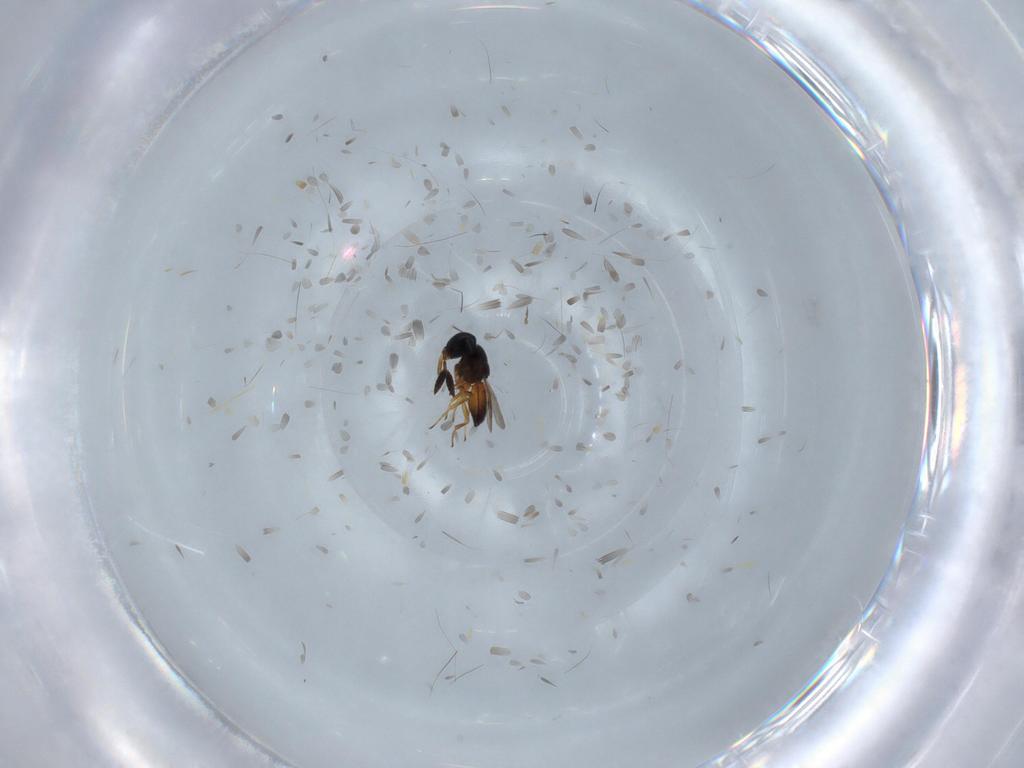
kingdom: Animalia
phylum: Arthropoda
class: Insecta
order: Hymenoptera
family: Scelionidae
